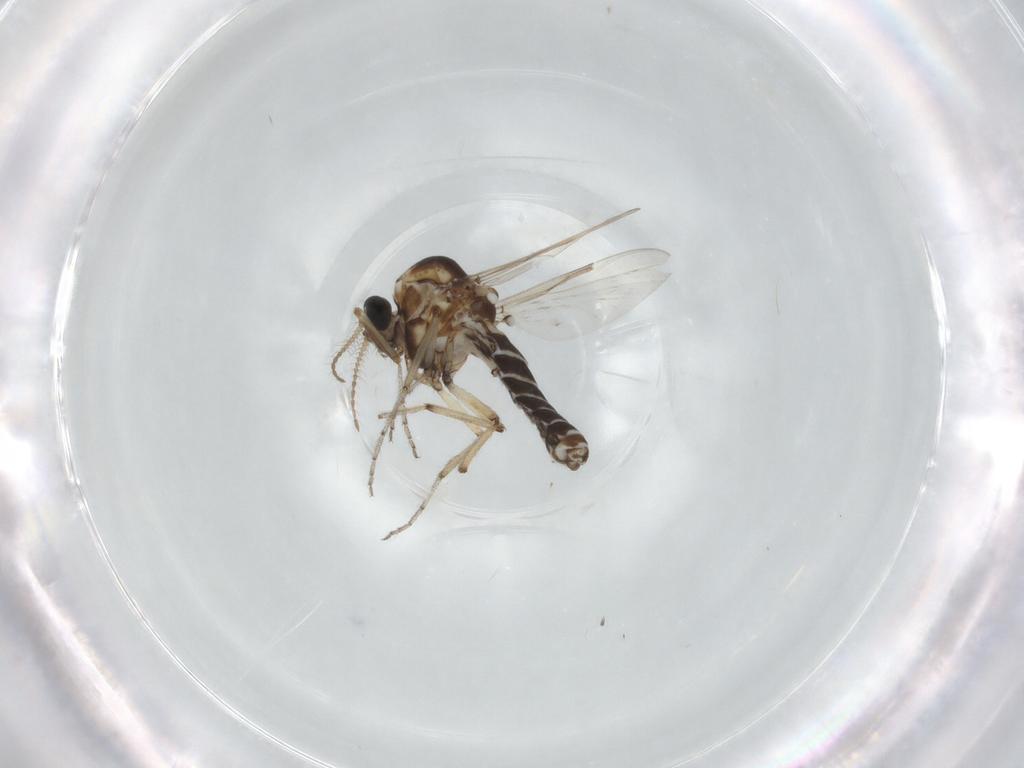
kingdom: Animalia
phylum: Arthropoda
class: Insecta
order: Diptera
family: Ceratopogonidae
